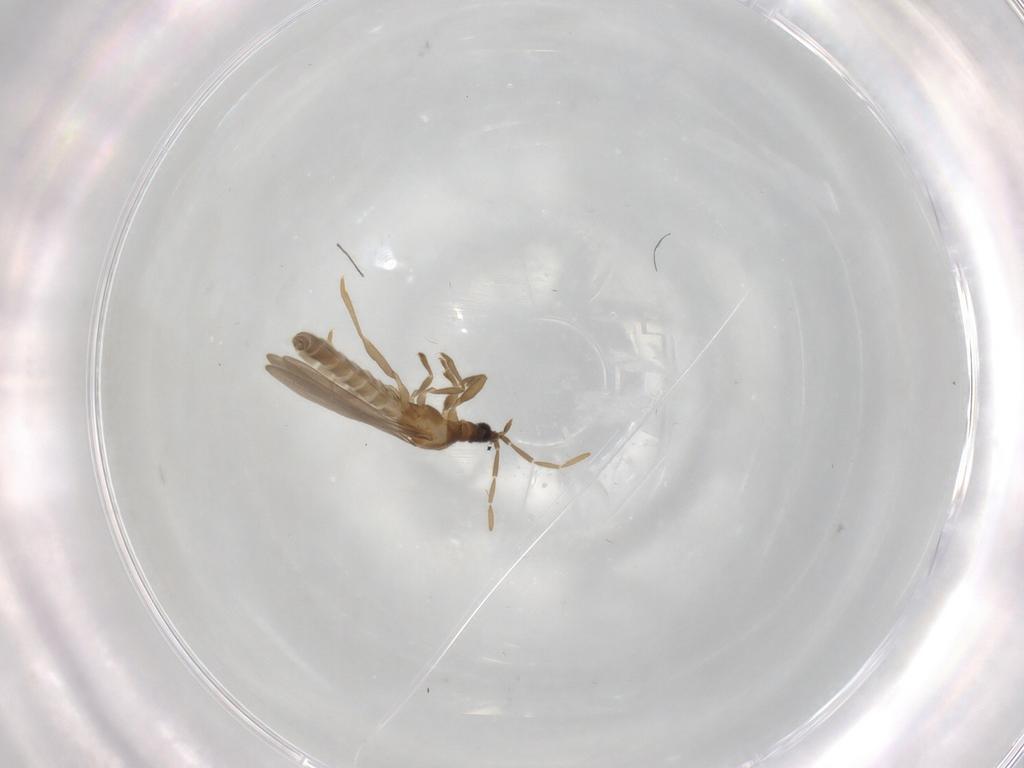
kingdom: Animalia
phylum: Arthropoda
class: Insecta
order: Hemiptera
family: Enicocephalidae
